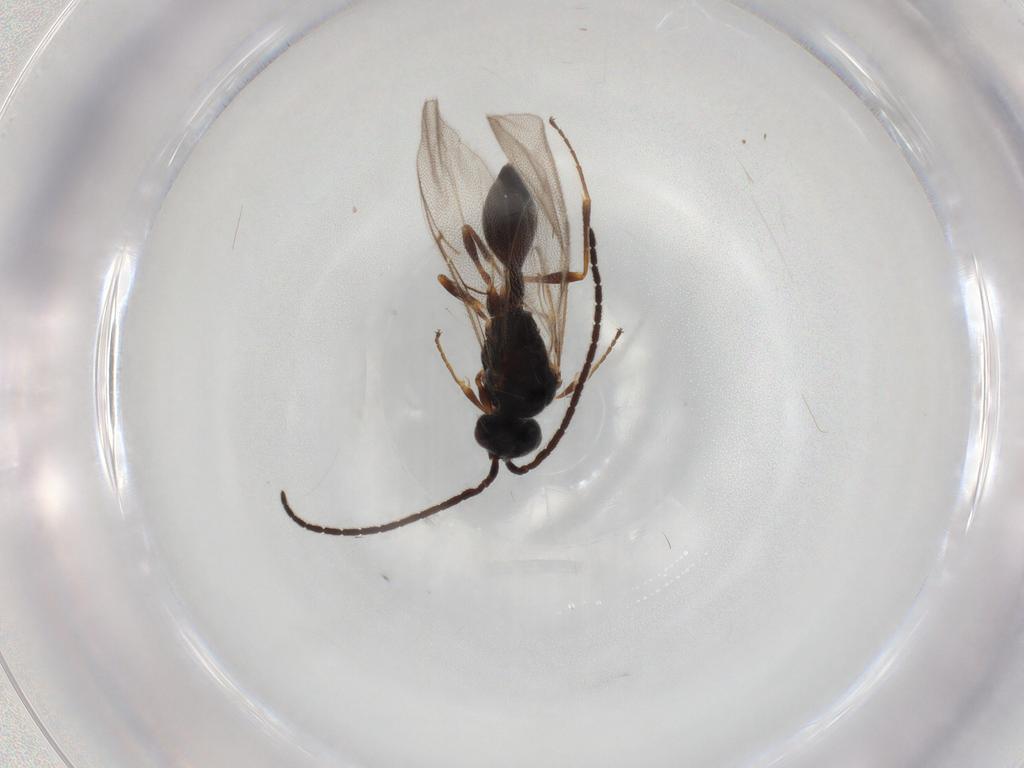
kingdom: Animalia
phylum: Arthropoda
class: Insecta
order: Hymenoptera
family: Diapriidae
